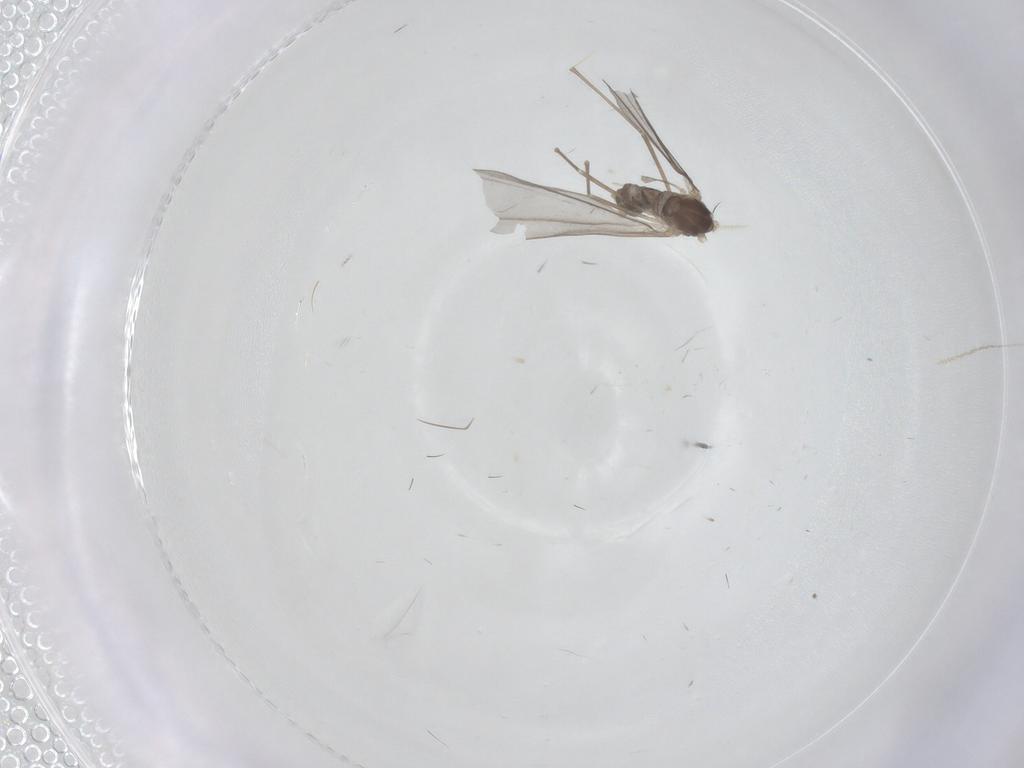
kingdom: Animalia
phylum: Arthropoda
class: Insecta
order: Diptera
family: Cecidomyiidae
